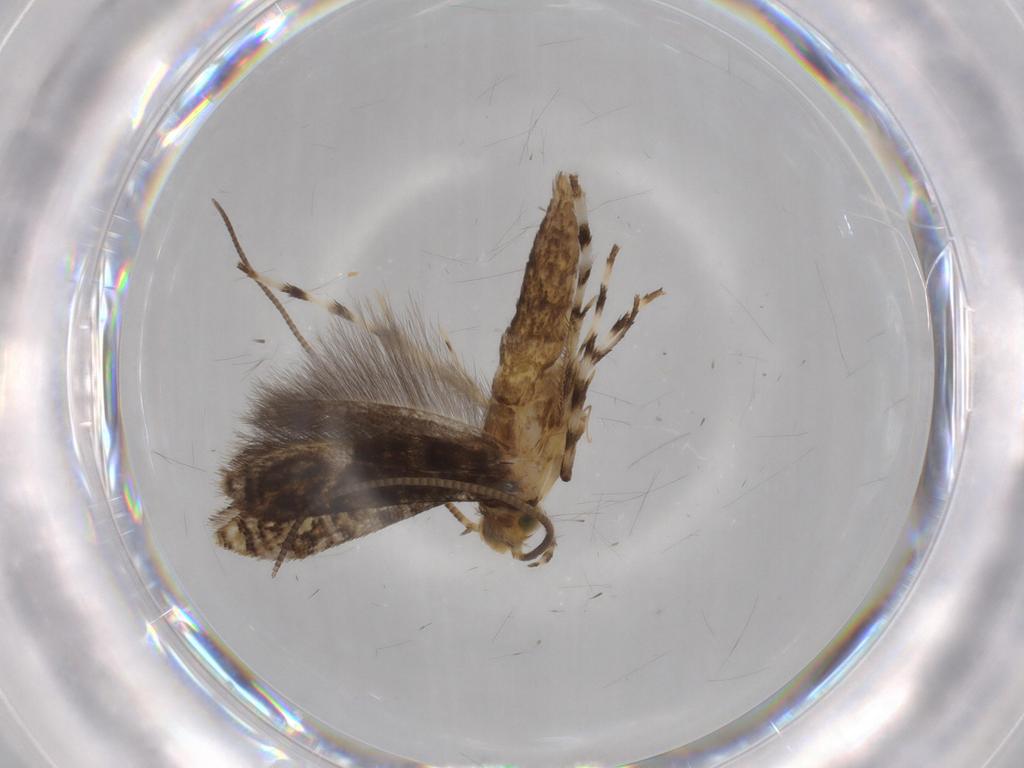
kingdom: Animalia
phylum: Arthropoda
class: Insecta
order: Lepidoptera
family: Gracillariidae
